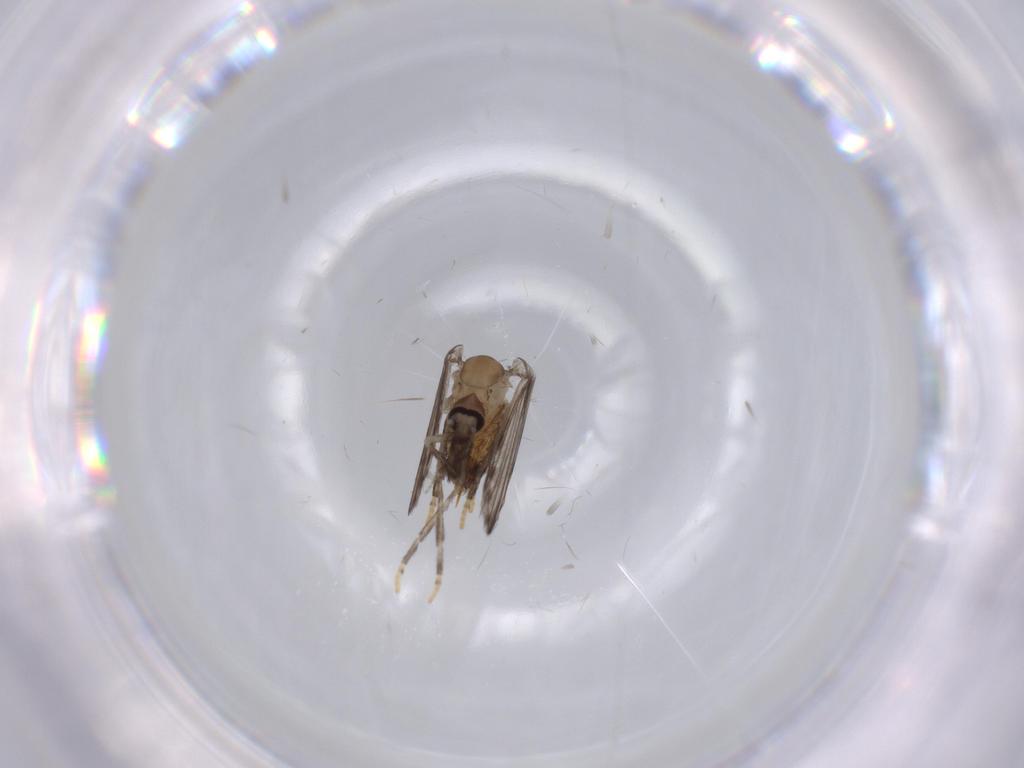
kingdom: Animalia
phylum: Arthropoda
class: Insecta
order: Diptera
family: Psychodidae
